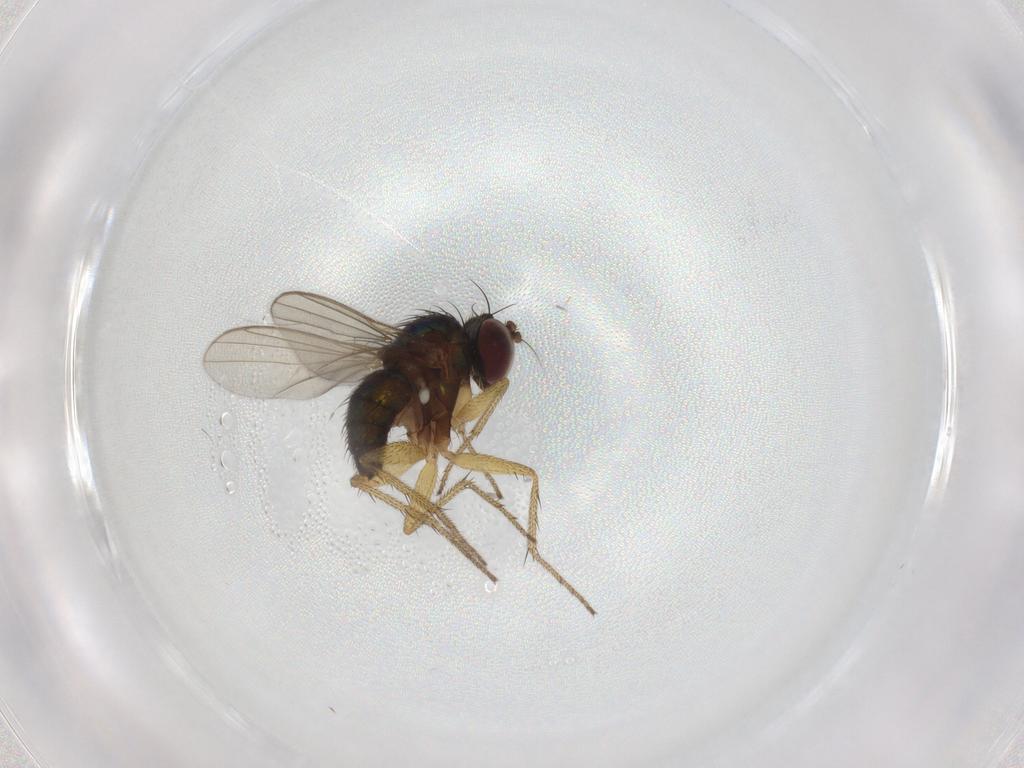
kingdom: Animalia
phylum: Arthropoda
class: Insecta
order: Diptera
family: Dolichopodidae
